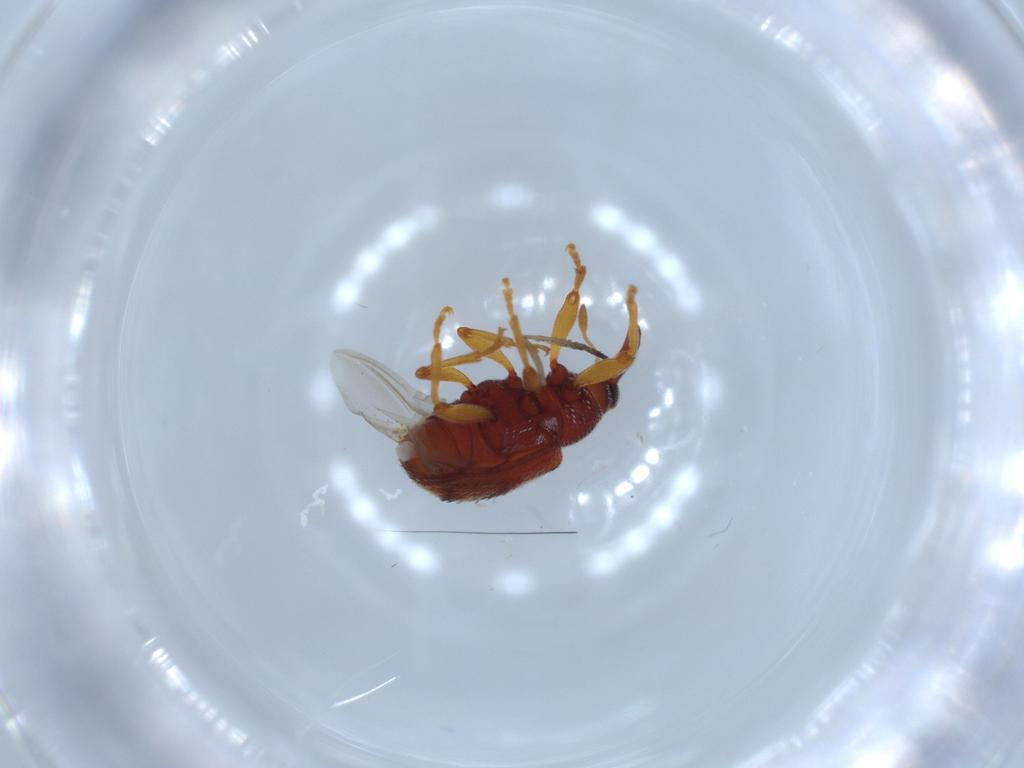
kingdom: Animalia
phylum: Arthropoda
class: Insecta
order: Coleoptera
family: Curculionidae
